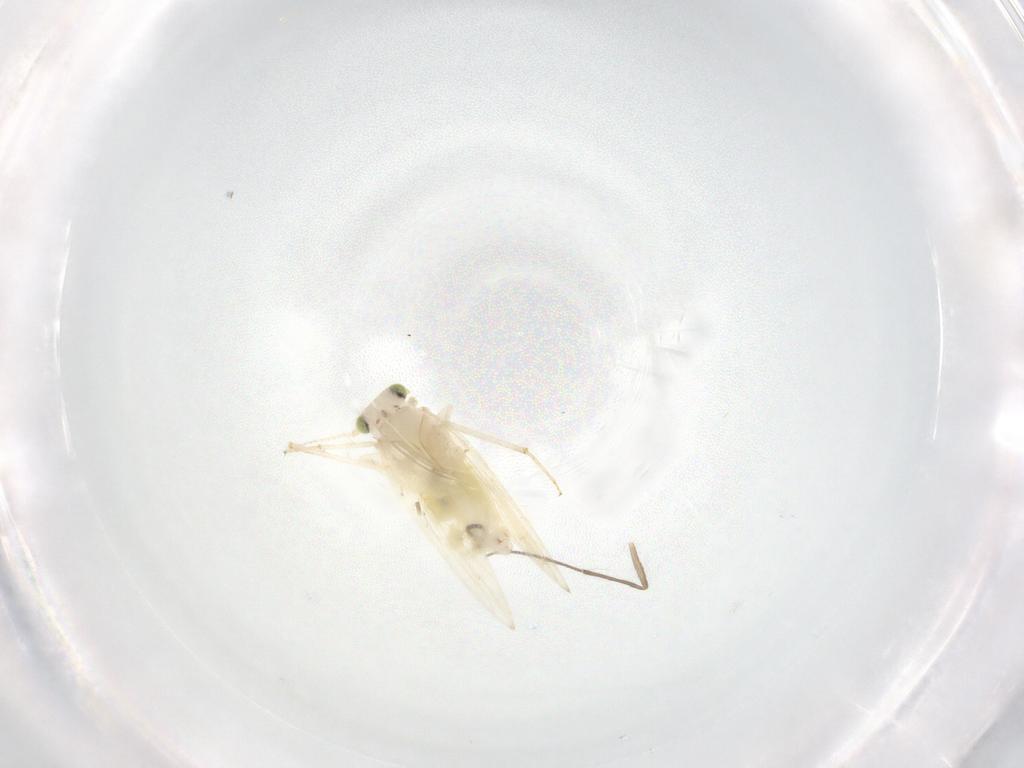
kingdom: Animalia
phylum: Arthropoda
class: Insecta
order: Psocodea
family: Lepidopsocidae
